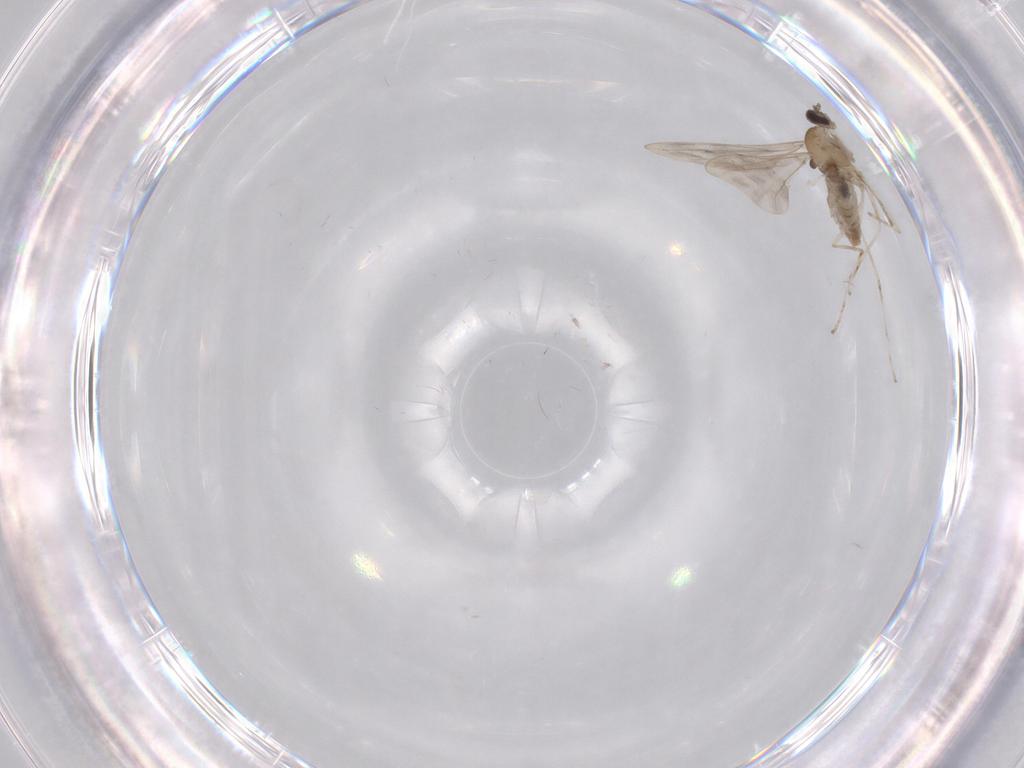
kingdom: Animalia
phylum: Arthropoda
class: Insecta
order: Diptera
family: Cecidomyiidae
